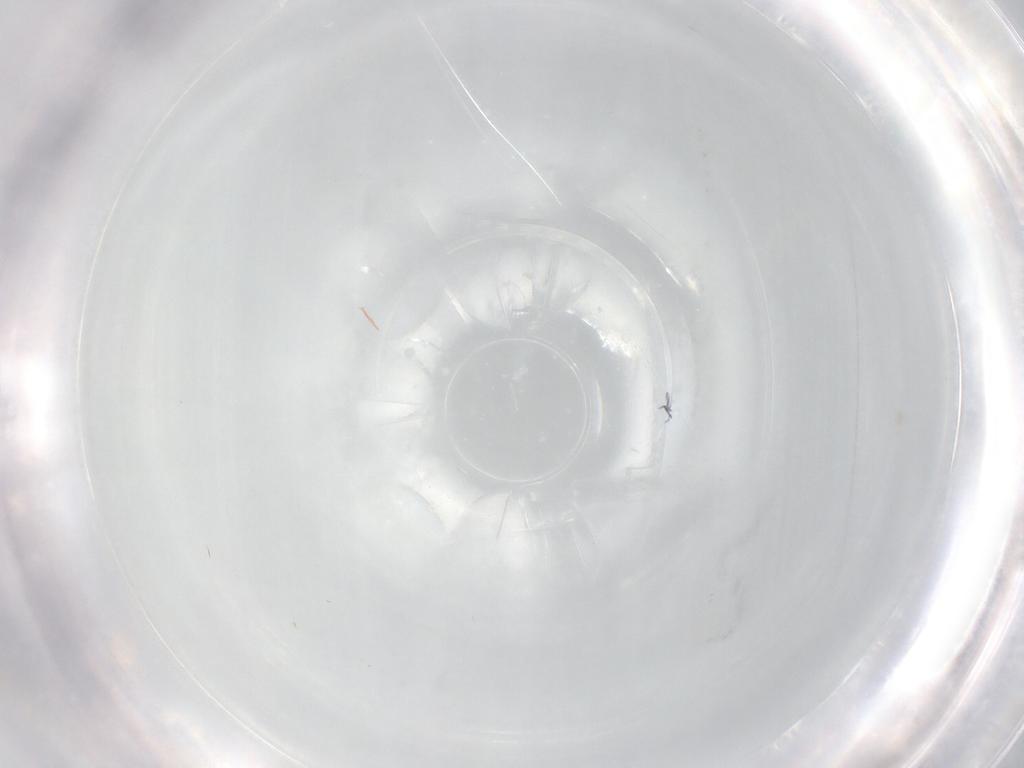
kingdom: Animalia
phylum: Arthropoda
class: Insecta
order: Diptera
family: Ceratopogonidae
